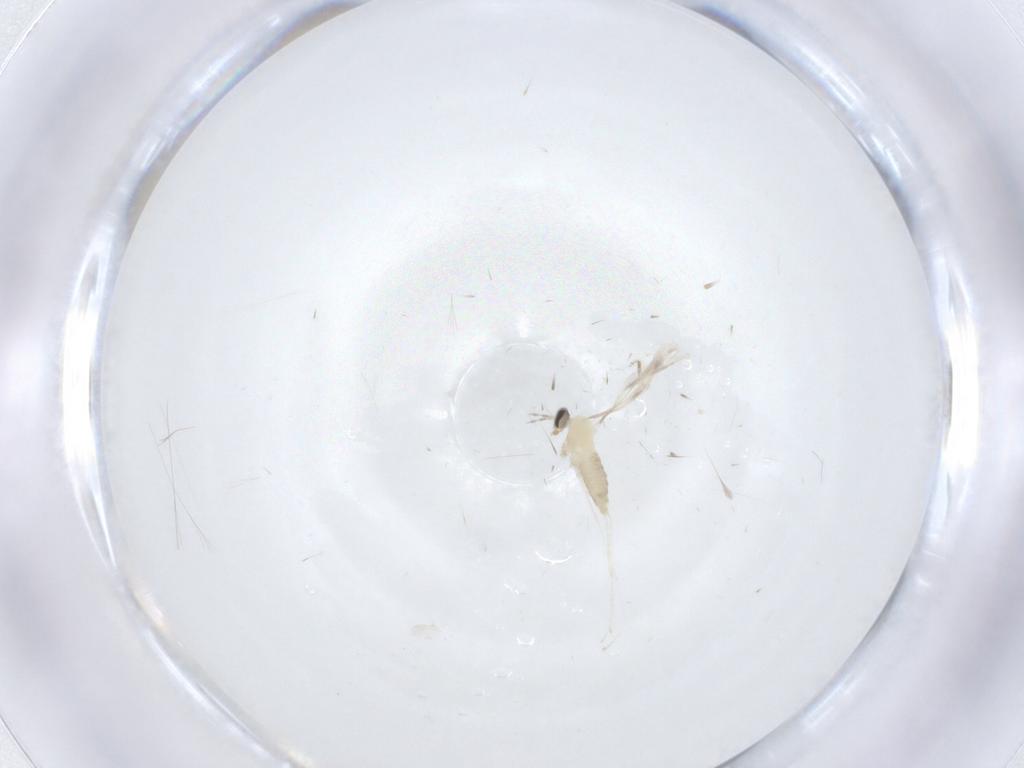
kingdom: Animalia
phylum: Arthropoda
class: Insecta
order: Diptera
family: Cecidomyiidae
